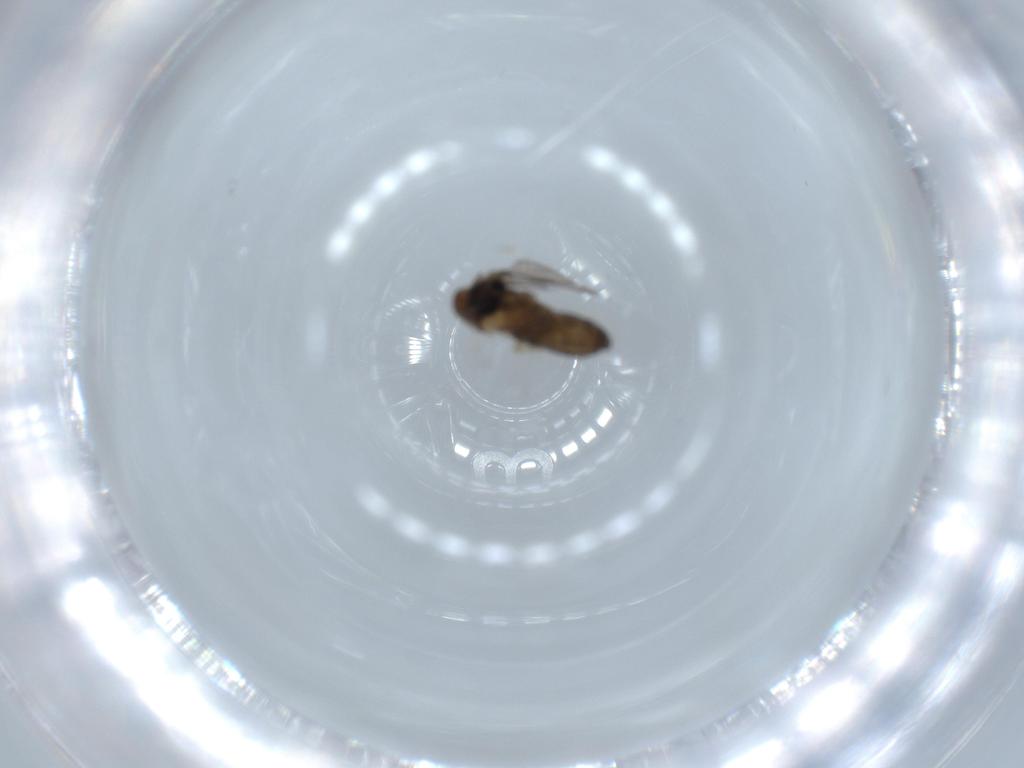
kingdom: Animalia
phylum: Arthropoda
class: Insecta
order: Diptera
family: Psychodidae
